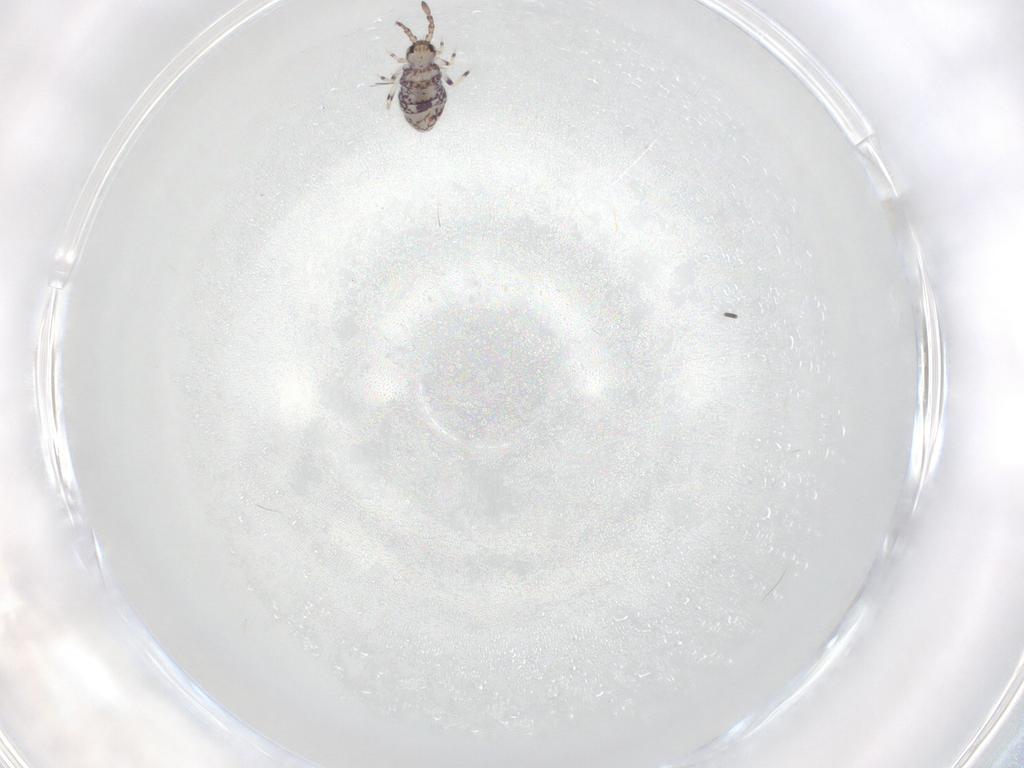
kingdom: Animalia
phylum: Arthropoda
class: Collembola
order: Entomobryomorpha
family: Entomobryidae
